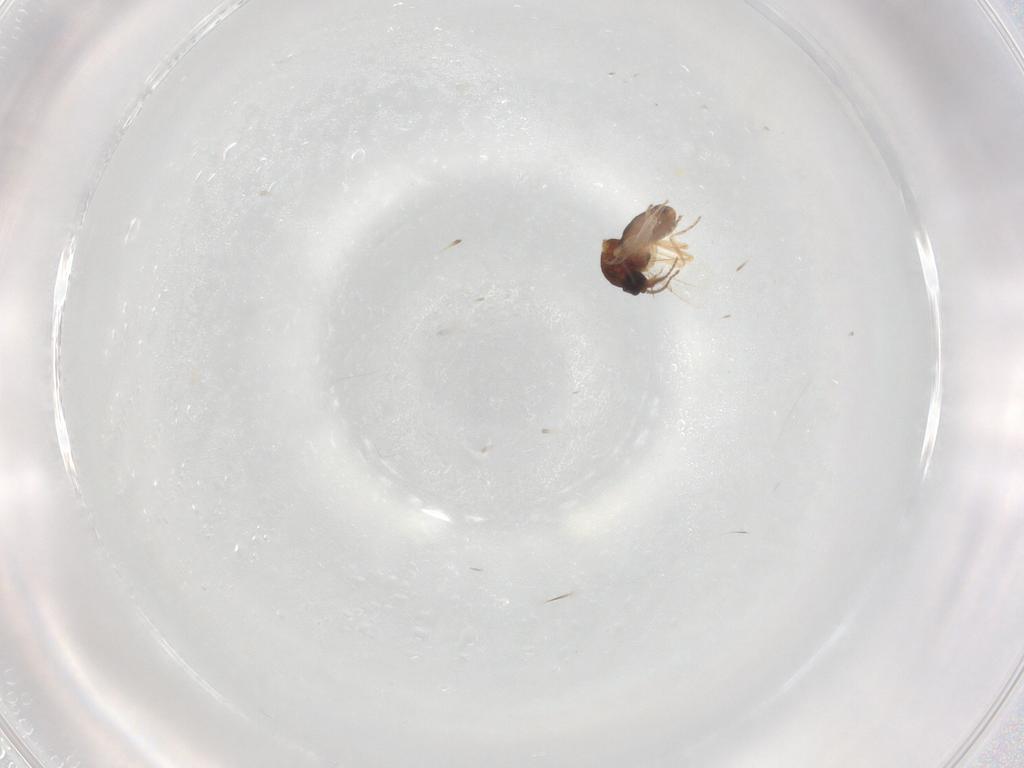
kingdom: Animalia
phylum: Arthropoda
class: Insecta
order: Diptera
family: Ceratopogonidae
